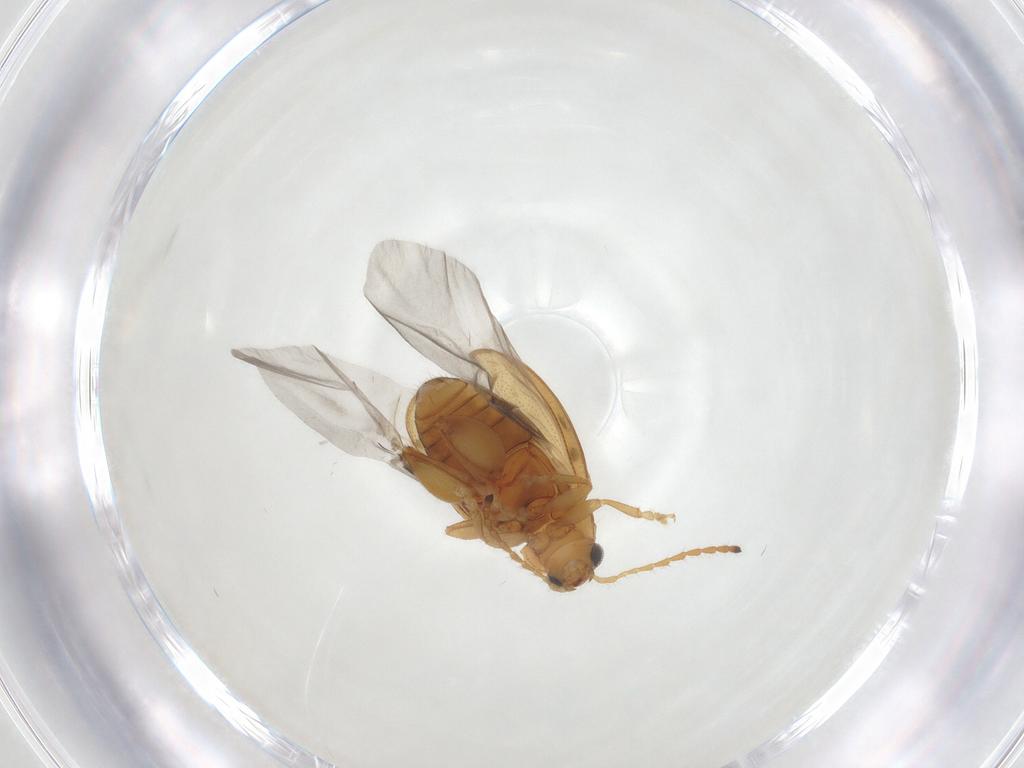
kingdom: Animalia
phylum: Arthropoda
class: Insecta
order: Coleoptera
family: Chrysomelidae
